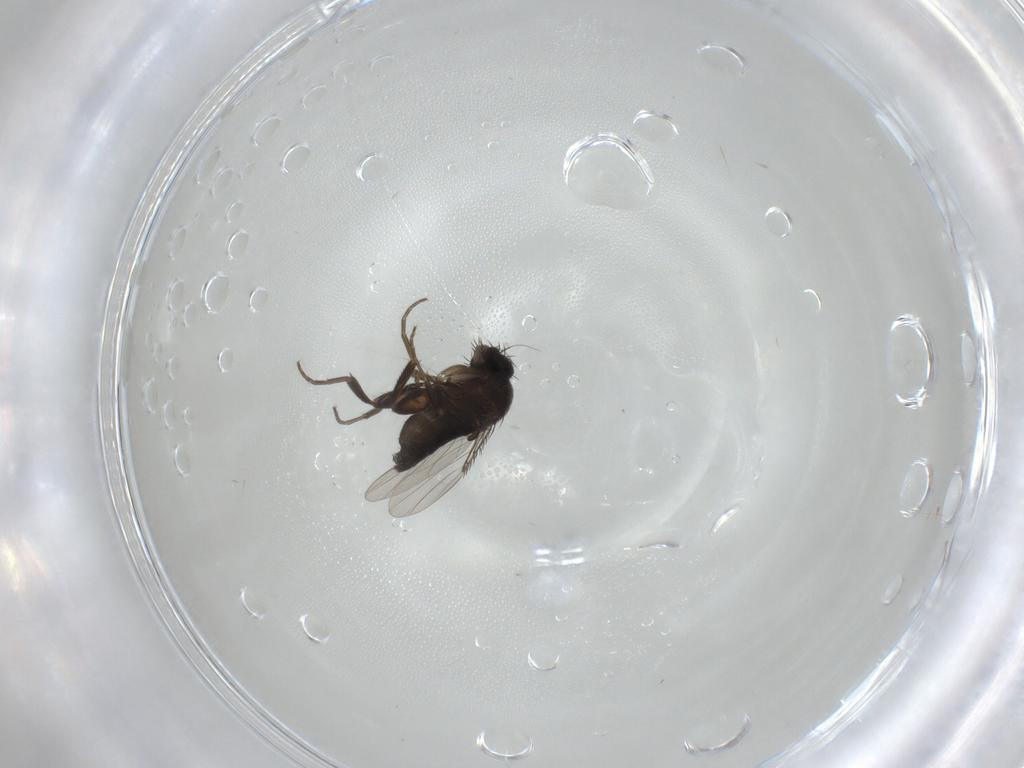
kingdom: Animalia
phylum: Arthropoda
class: Insecta
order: Diptera
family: Phoridae
